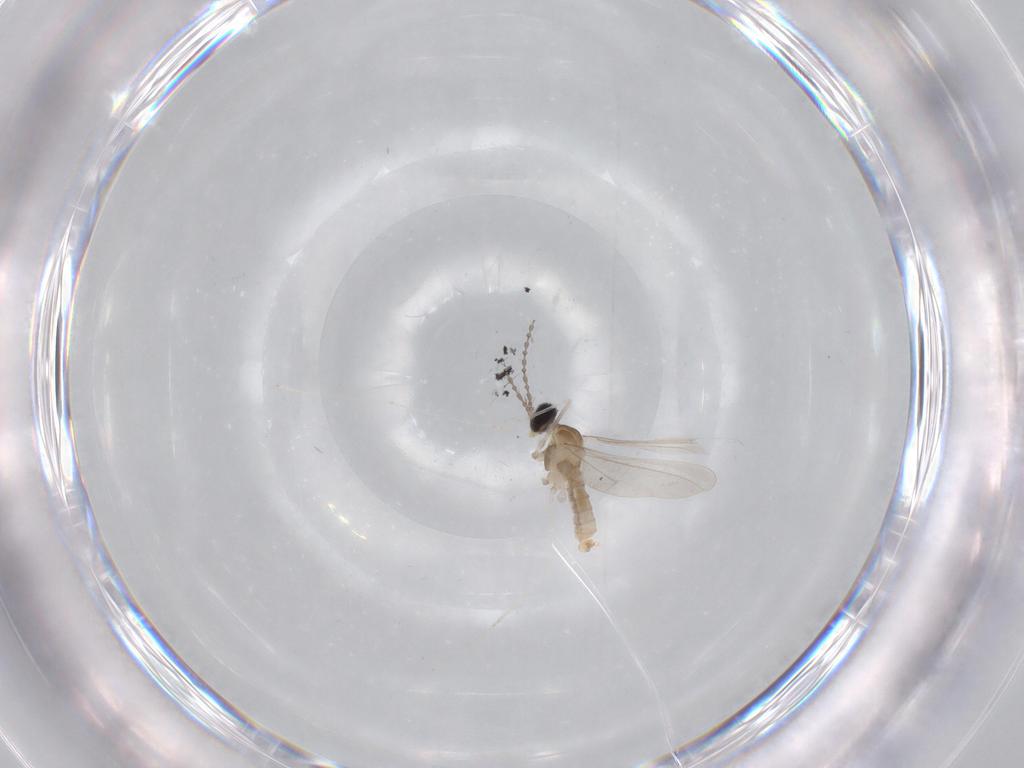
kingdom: Animalia
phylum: Arthropoda
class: Insecta
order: Diptera
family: Cecidomyiidae
